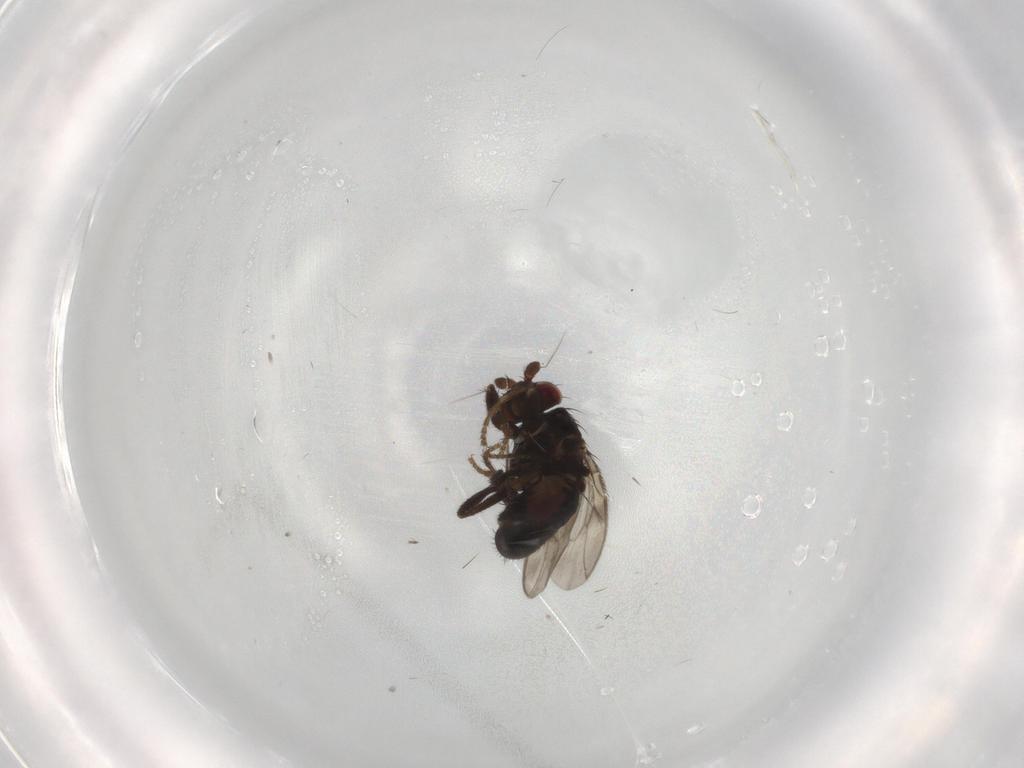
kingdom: Animalia
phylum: Arthropoda
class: Insecta
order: Diptera
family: Sphaeroceridae
